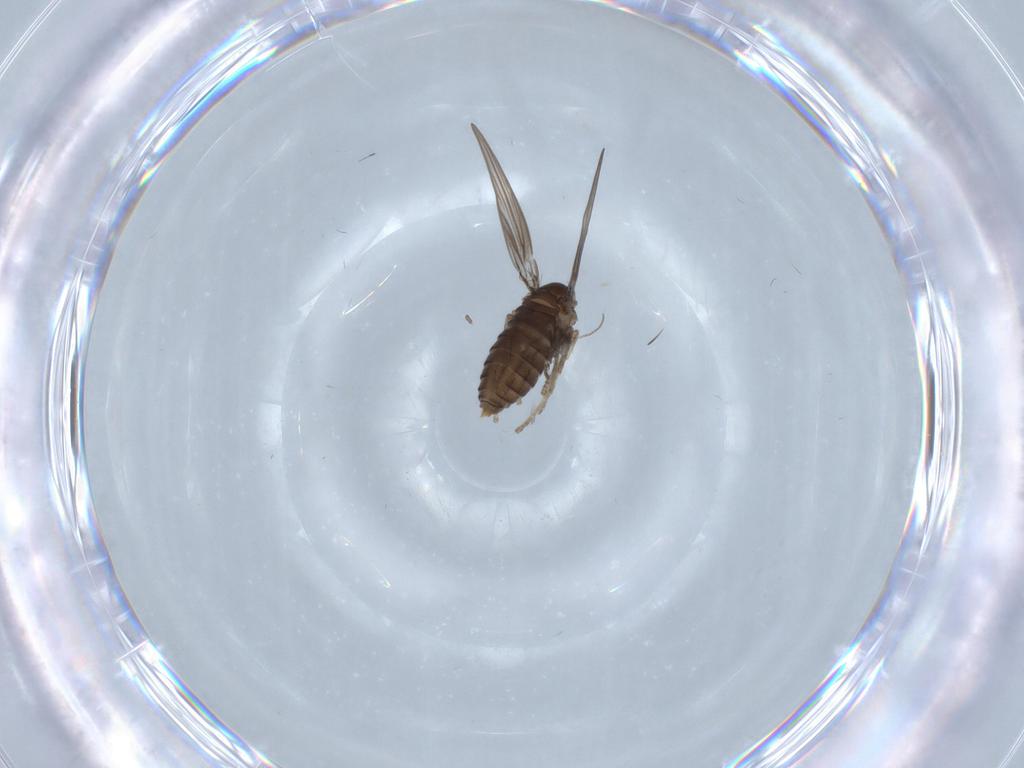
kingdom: Animalia
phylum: Arthropoda
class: Insecta
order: Diptera
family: Psychodidae
